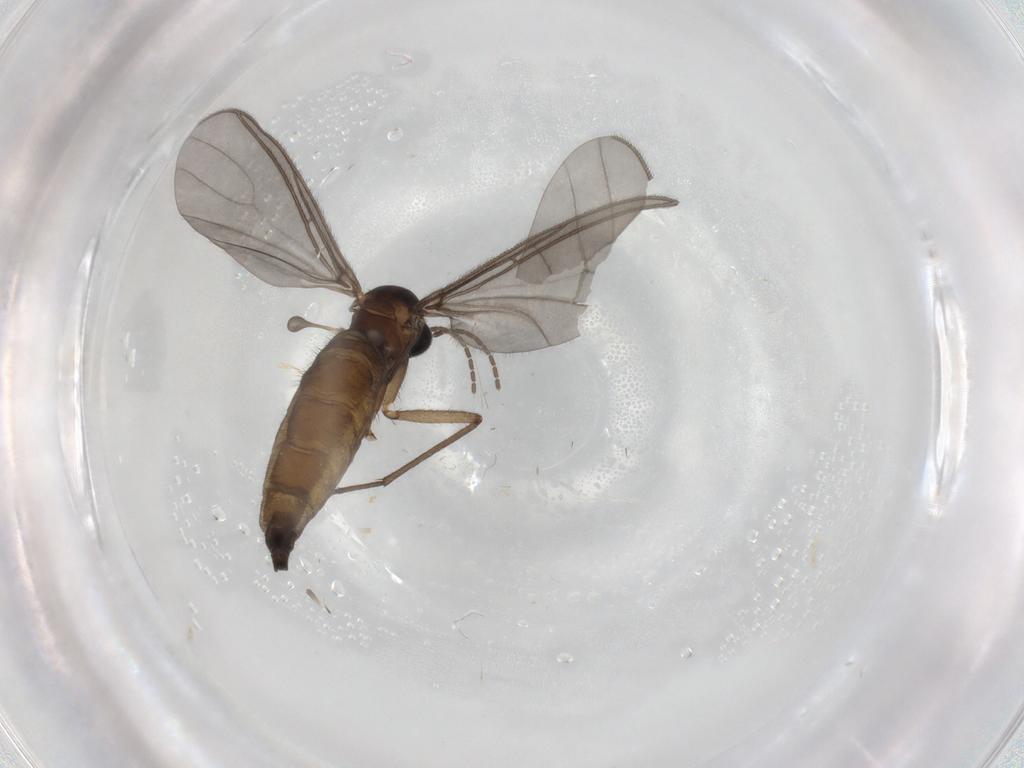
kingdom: Animalia
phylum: Arthropoda
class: Insecta
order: Diptera
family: Sciaridae
